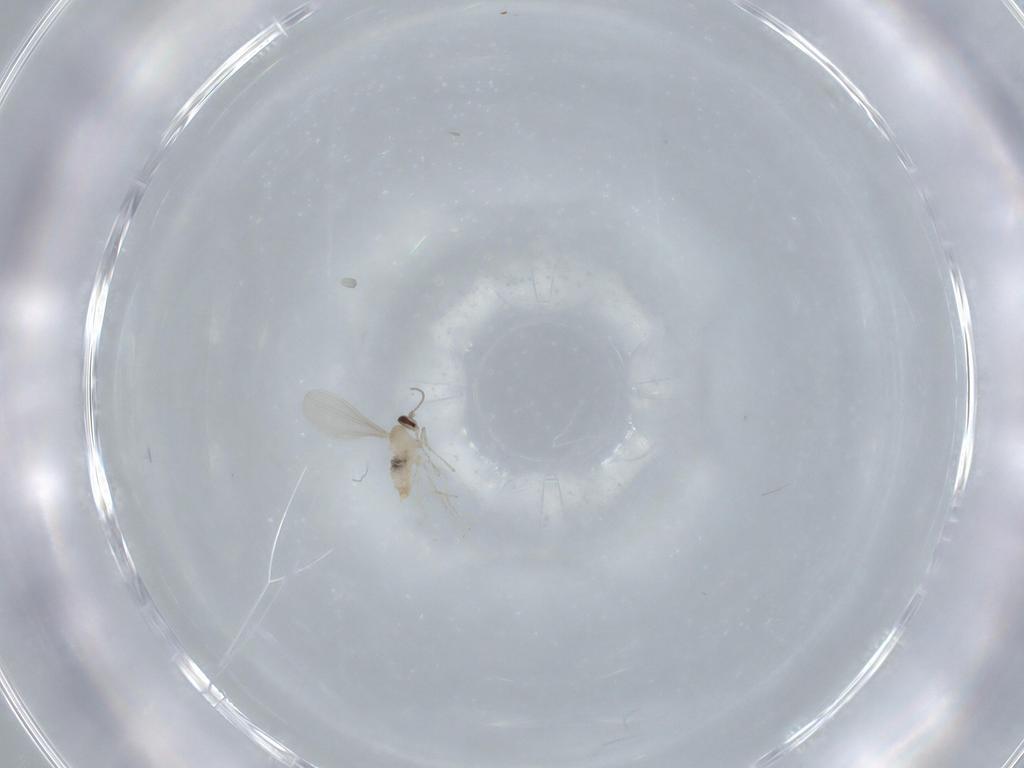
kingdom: Animalia
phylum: Arthropoda
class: Insecta
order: Diptera
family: Cecidomyiidae
